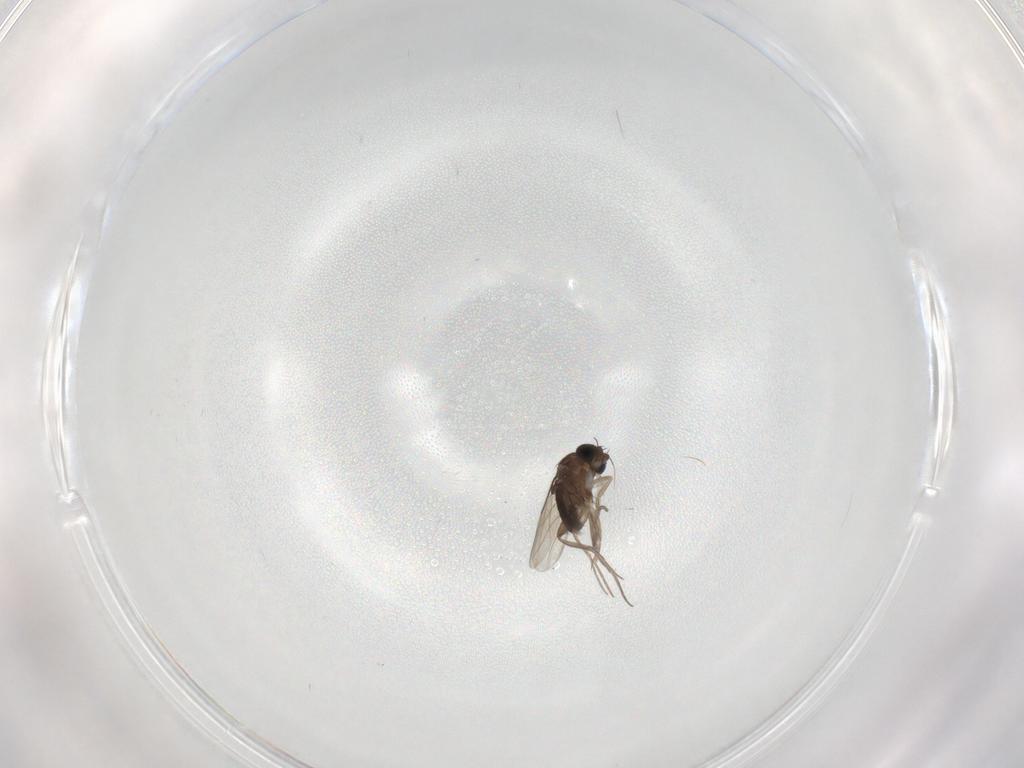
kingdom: Animalia
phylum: Arthropoda
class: Insecta
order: Diptera
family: Phoridae
